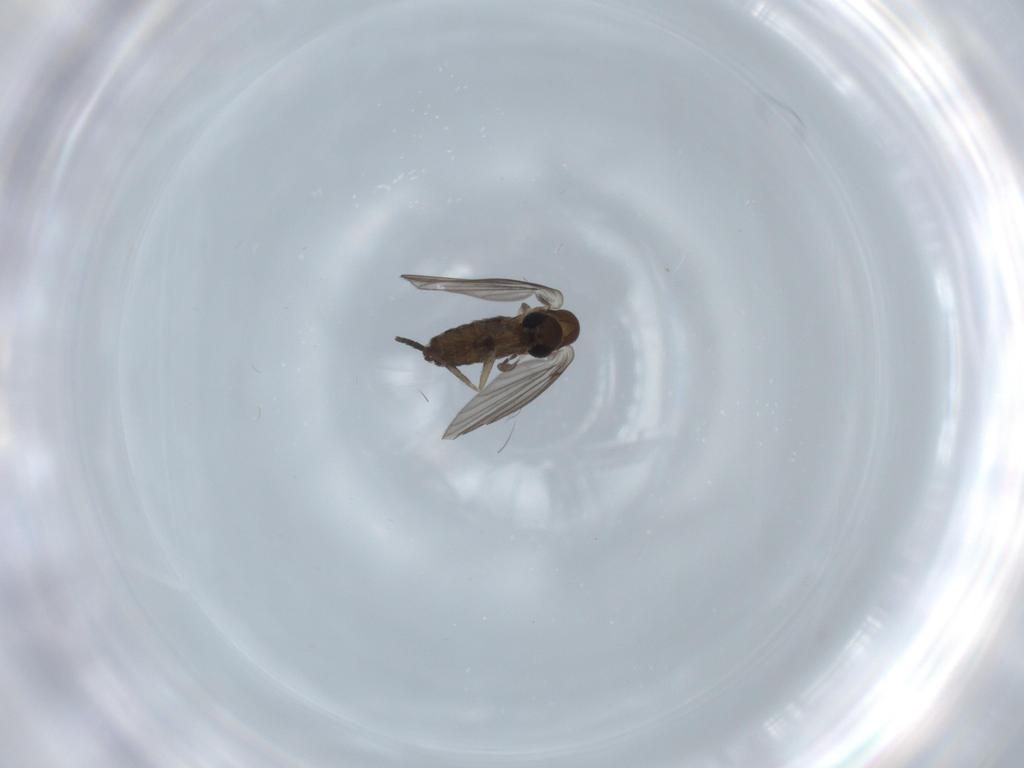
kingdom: Animalia
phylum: Arthropoda
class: Insecta
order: Diptera
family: Psychodidae
